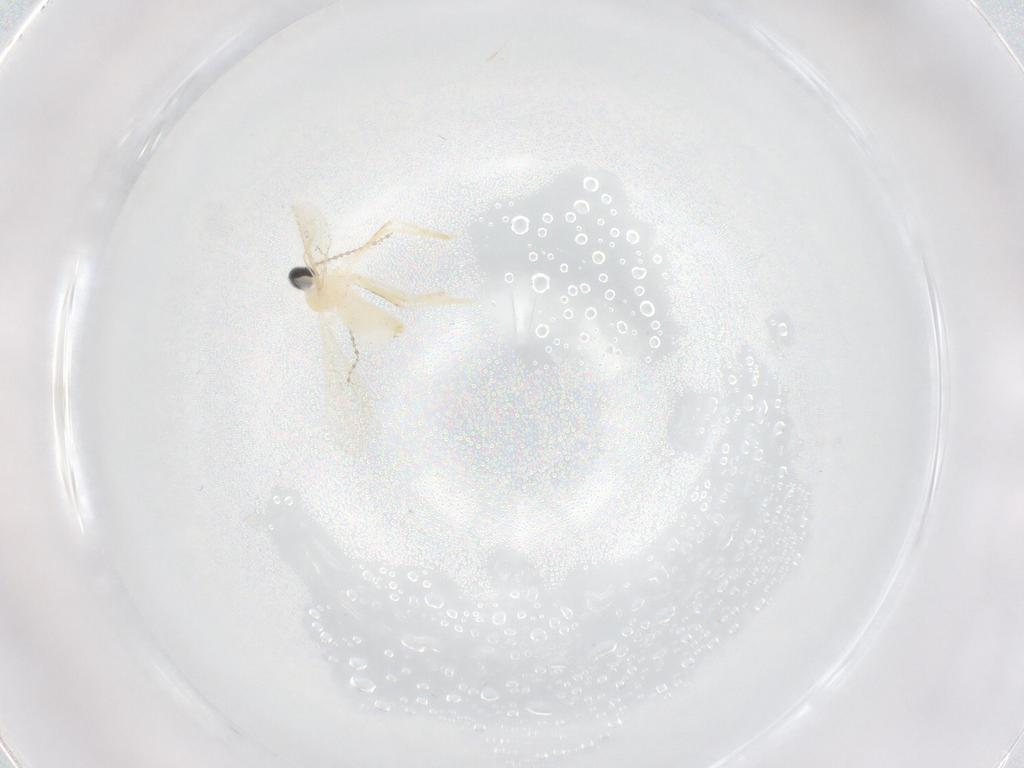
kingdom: Animalia
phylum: Arthropoda
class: Insecta
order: Diptera
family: Cecidomyiidae
